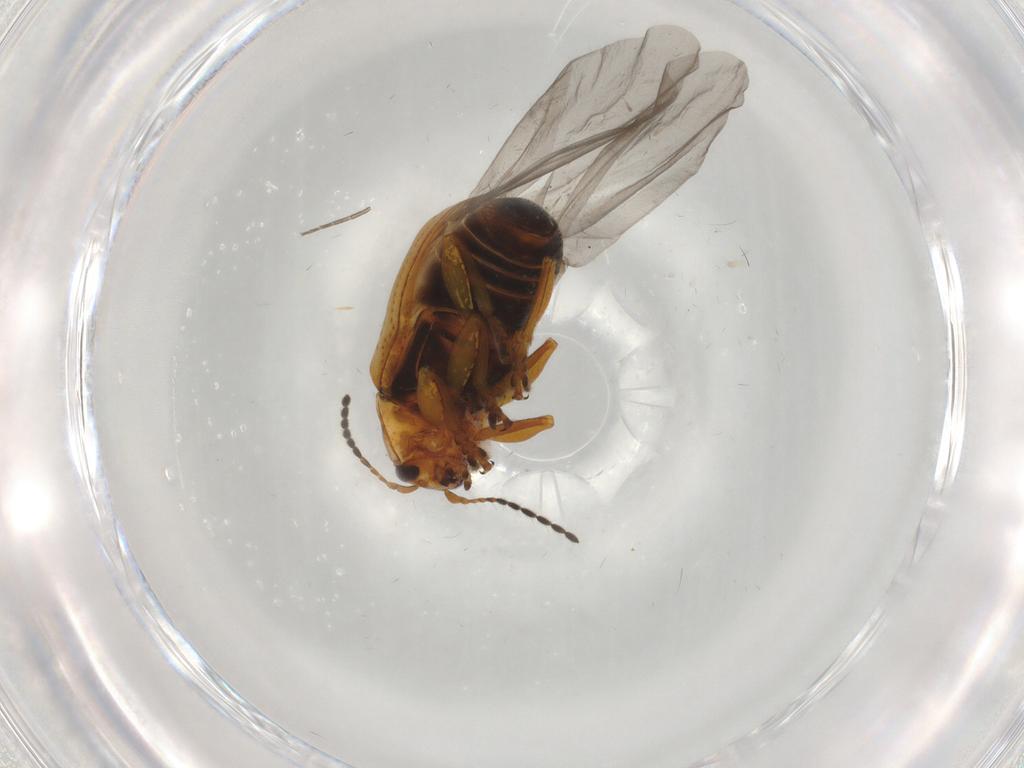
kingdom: Animalia
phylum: Arthropoda
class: Insecta
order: Coleoptera
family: Chrysomelidae
